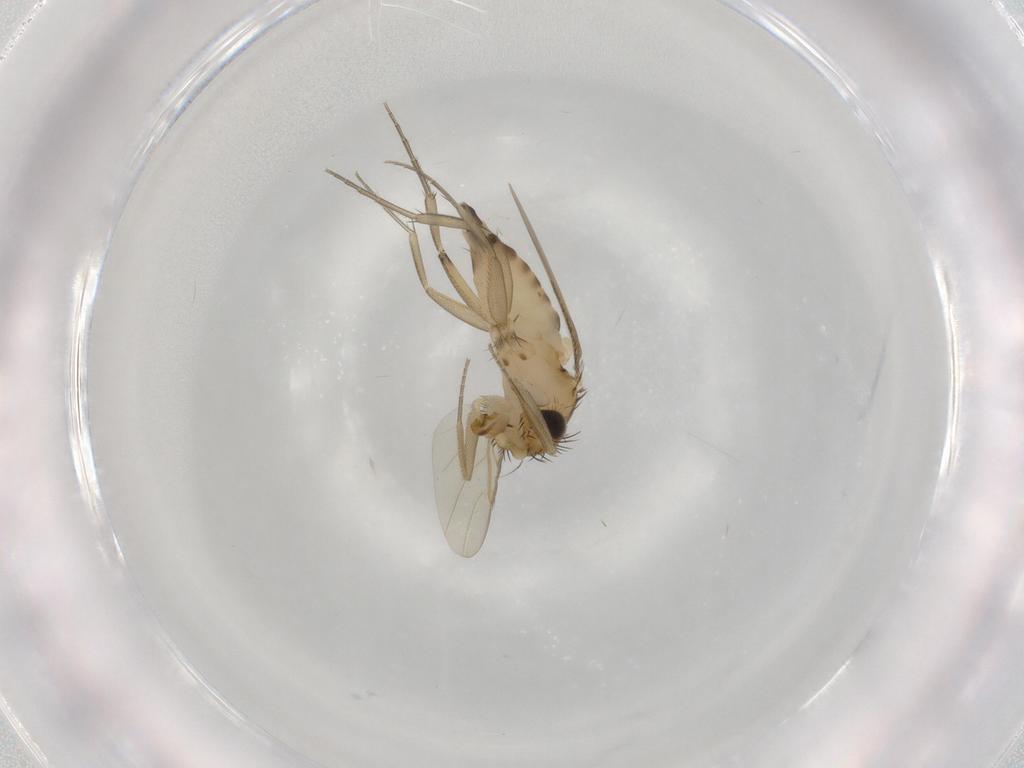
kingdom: Animalia
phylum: Arthropoda
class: Insecta
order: Diptera
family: Phoridae
